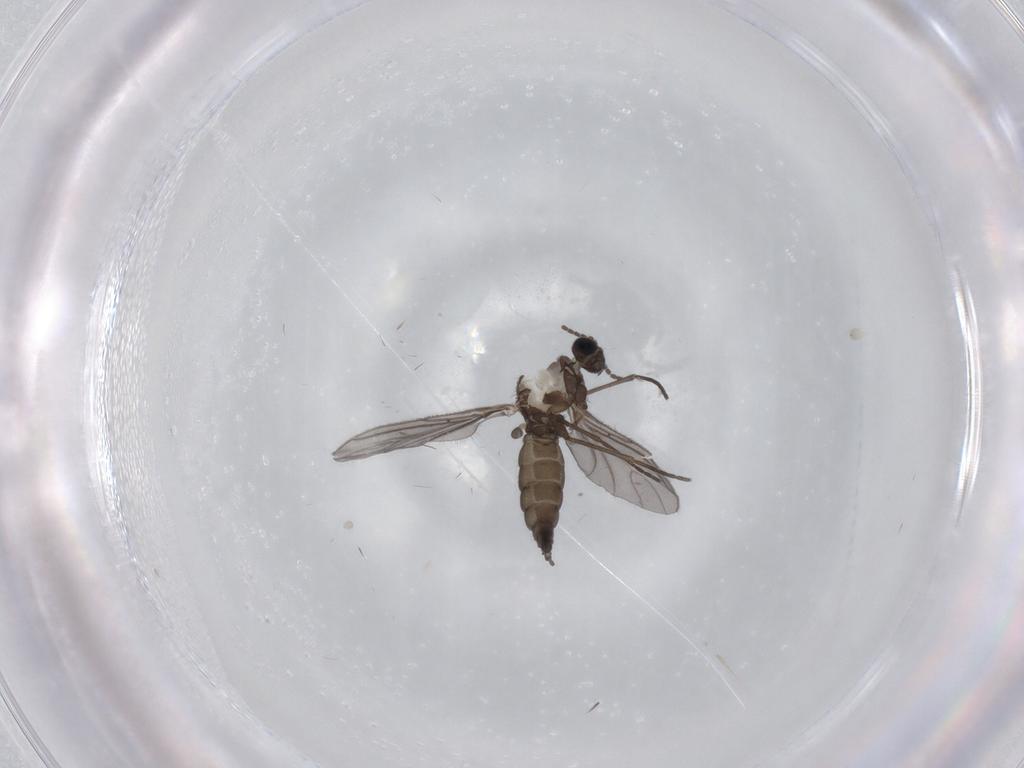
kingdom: Animalia
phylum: Arthropoda
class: Insecta
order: Diptera
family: Sciaridae
